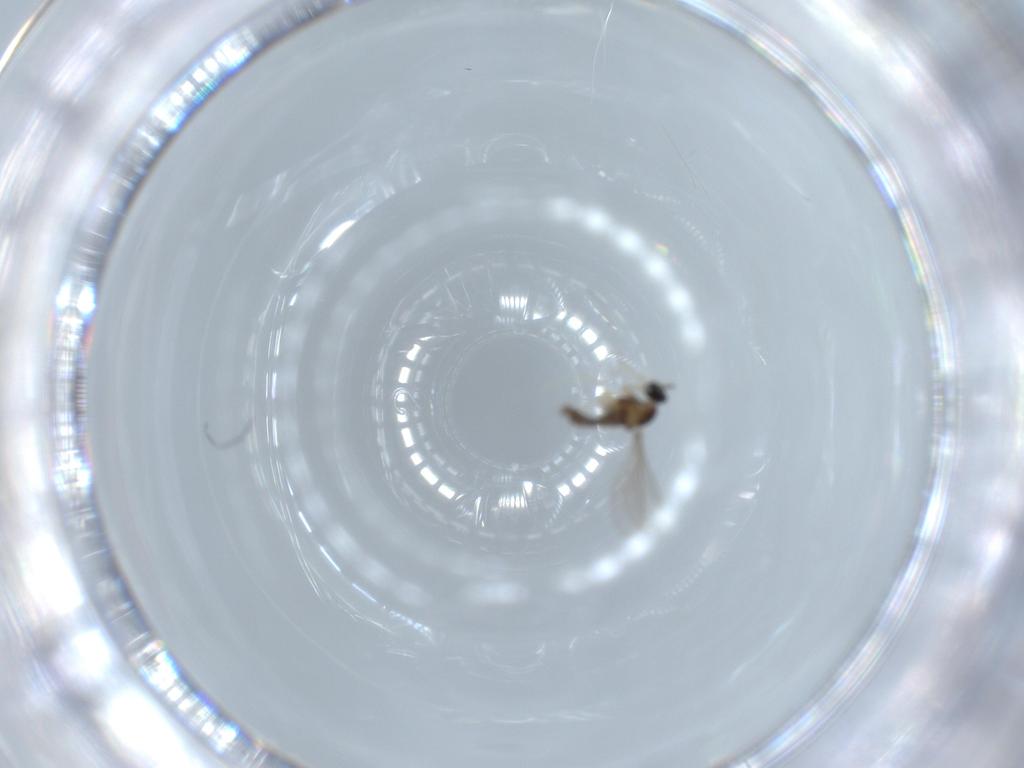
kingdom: Animalia
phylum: Arthropoda
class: Insecta
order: Diptera
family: Cecidomyiidae
